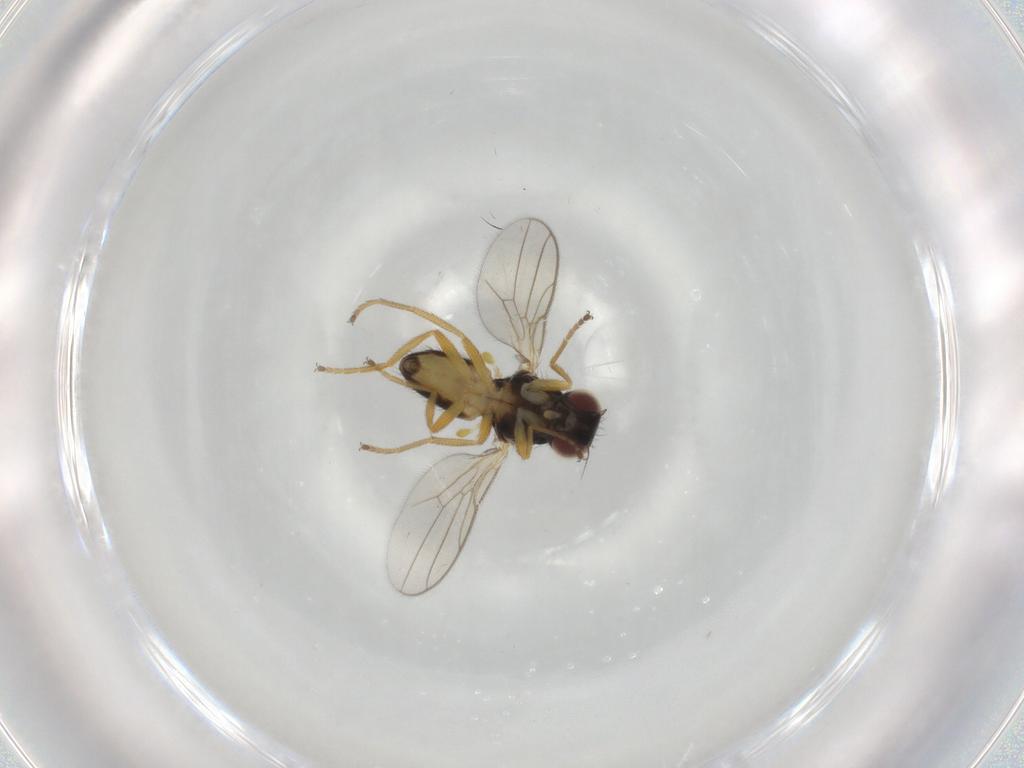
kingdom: Animalia
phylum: Arthropoda
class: Insecta
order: Diptera
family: Chloropidae
